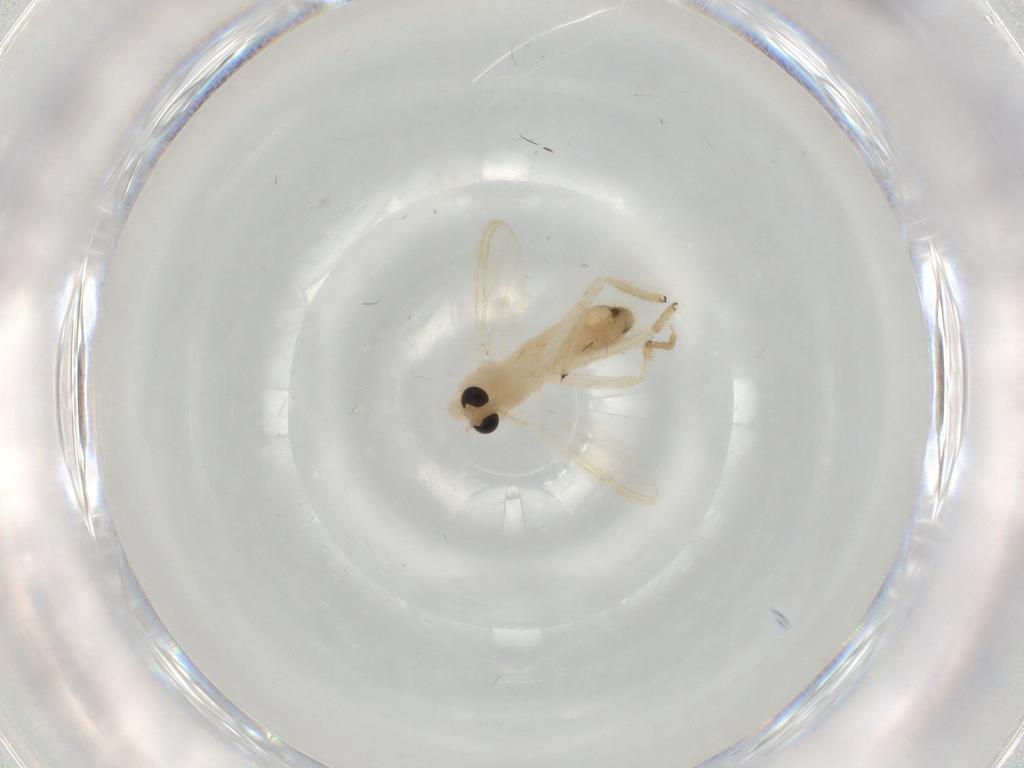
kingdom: Animalia
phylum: Arthropoda
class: Insecta
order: Diptera
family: Chironomidae
